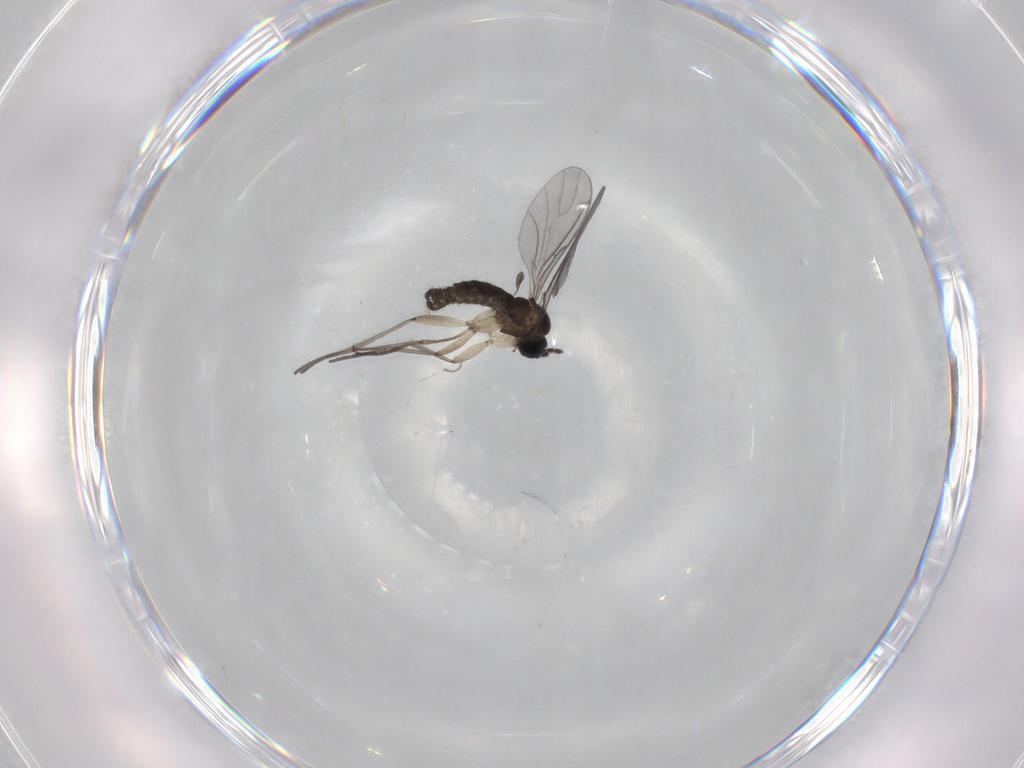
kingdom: Animalia
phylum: Arthropoda
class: Insecta
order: Diptera
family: Sciaridae
